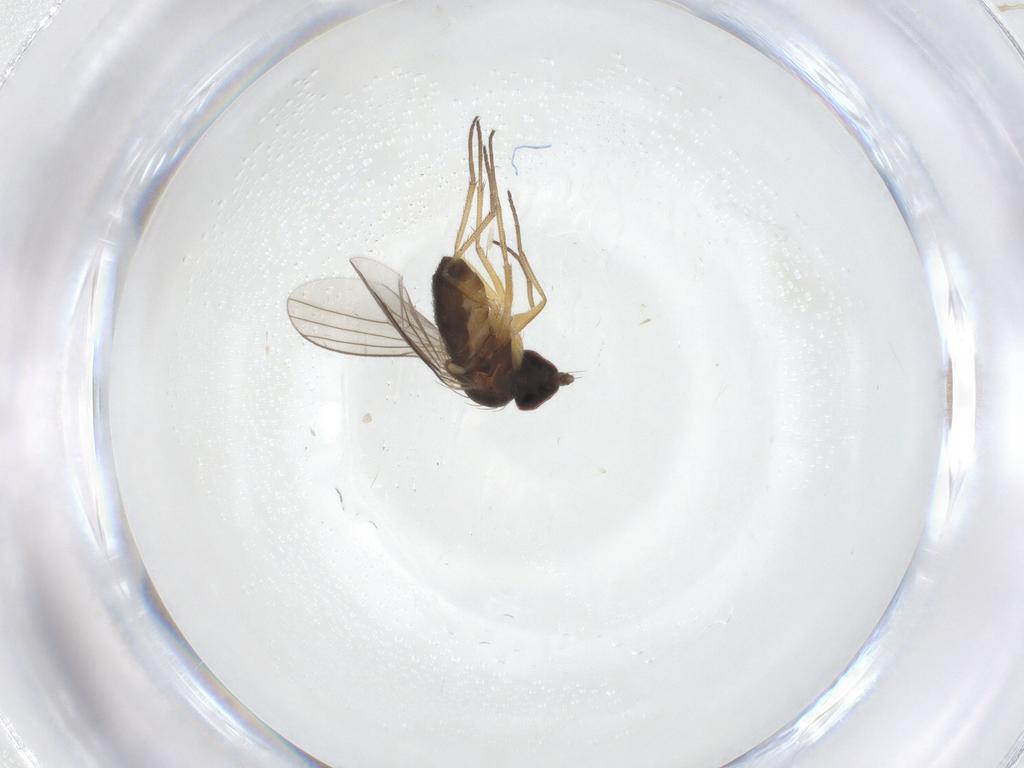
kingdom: Animalia
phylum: Arthropoda
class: Insecta
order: Diptera
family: Dolichopodidae
